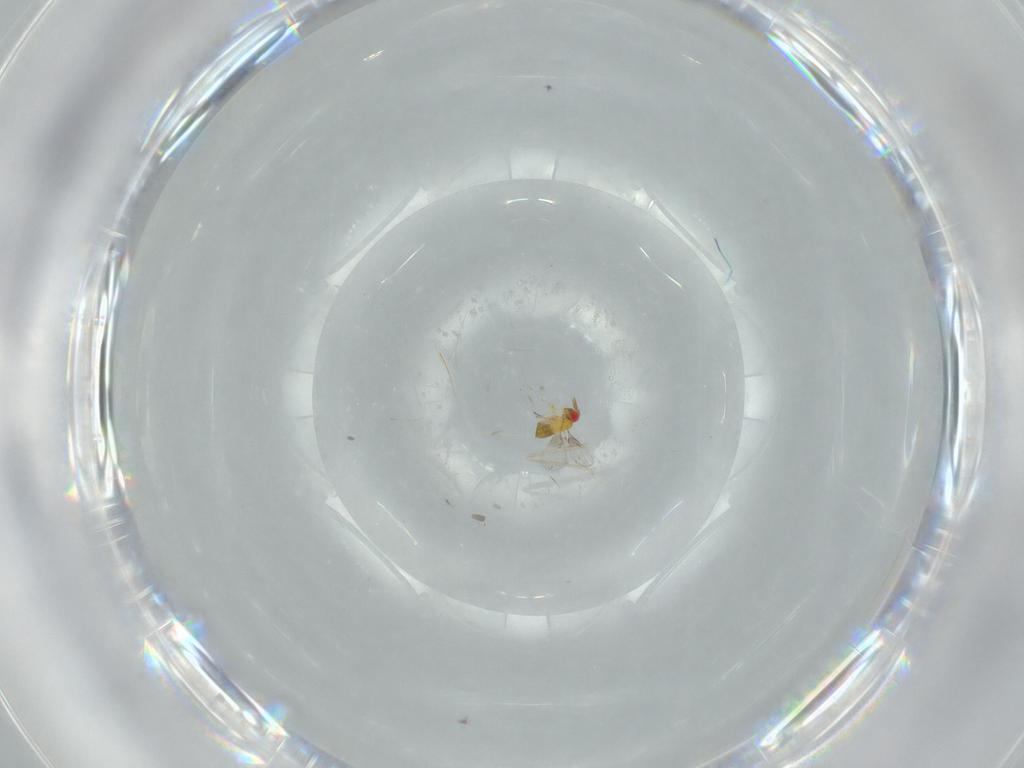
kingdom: Animalia
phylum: Arthropoda
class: Insecta
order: Hymenoptera
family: Trichogrammatidae
